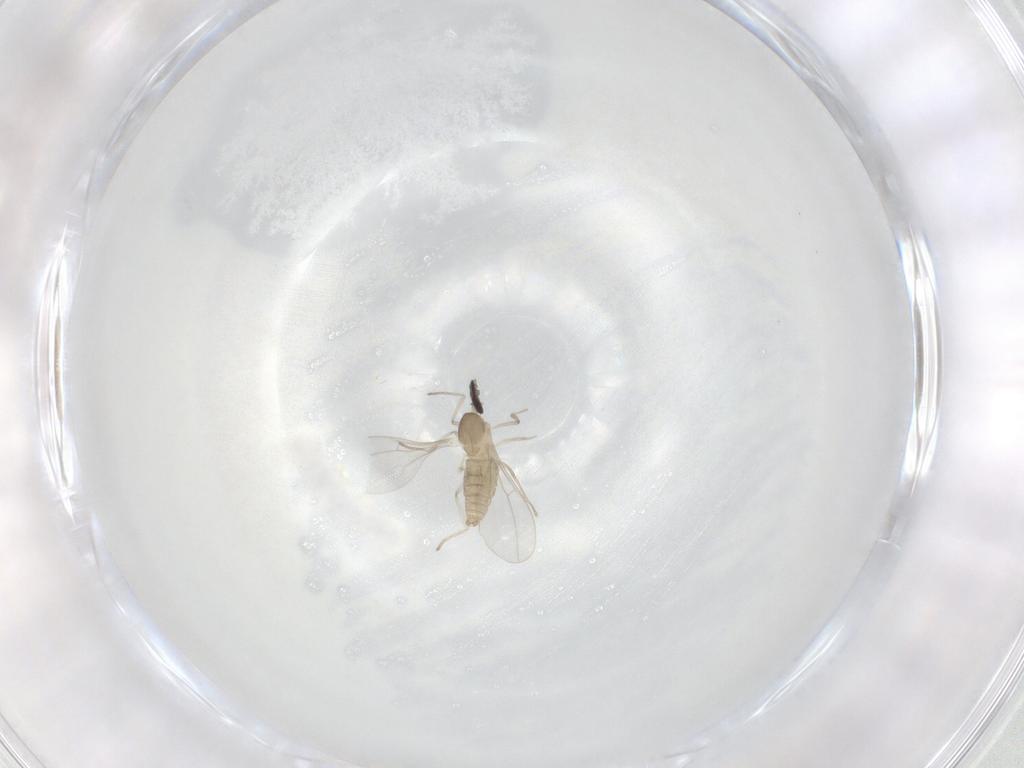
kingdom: Animalia
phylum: Arthropoda
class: Insecta
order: Diptera
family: Cecidomyiidae
